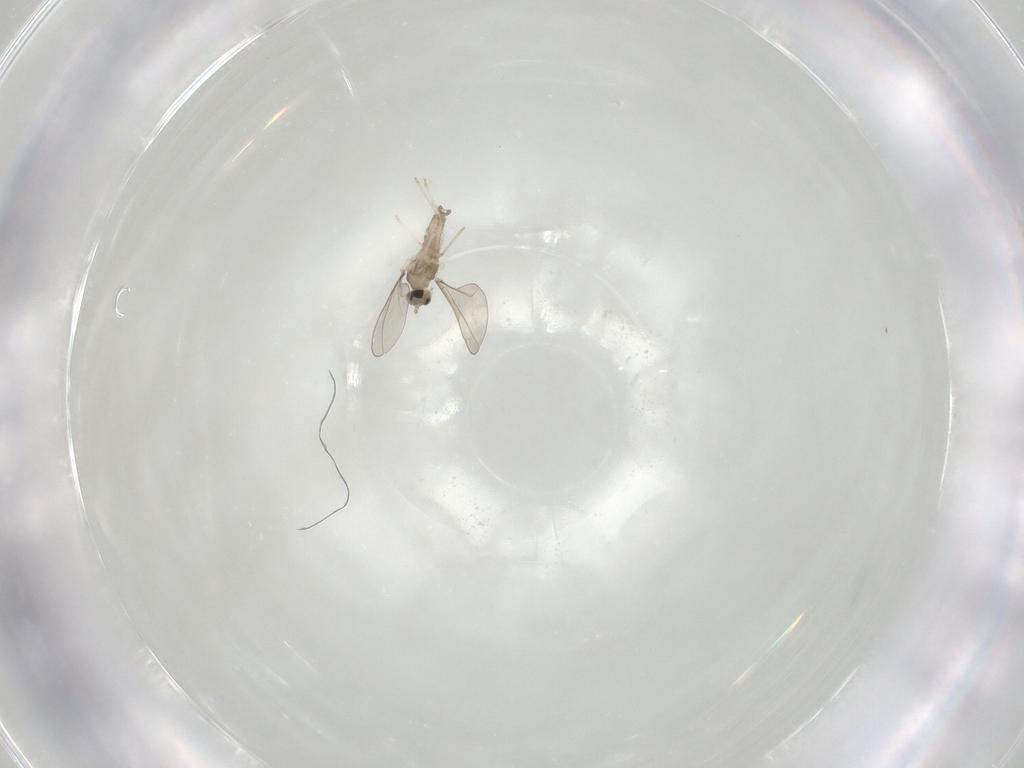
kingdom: Animalia
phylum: Arthropoda
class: Insecta
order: Diptera
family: Cecidomyiidae
